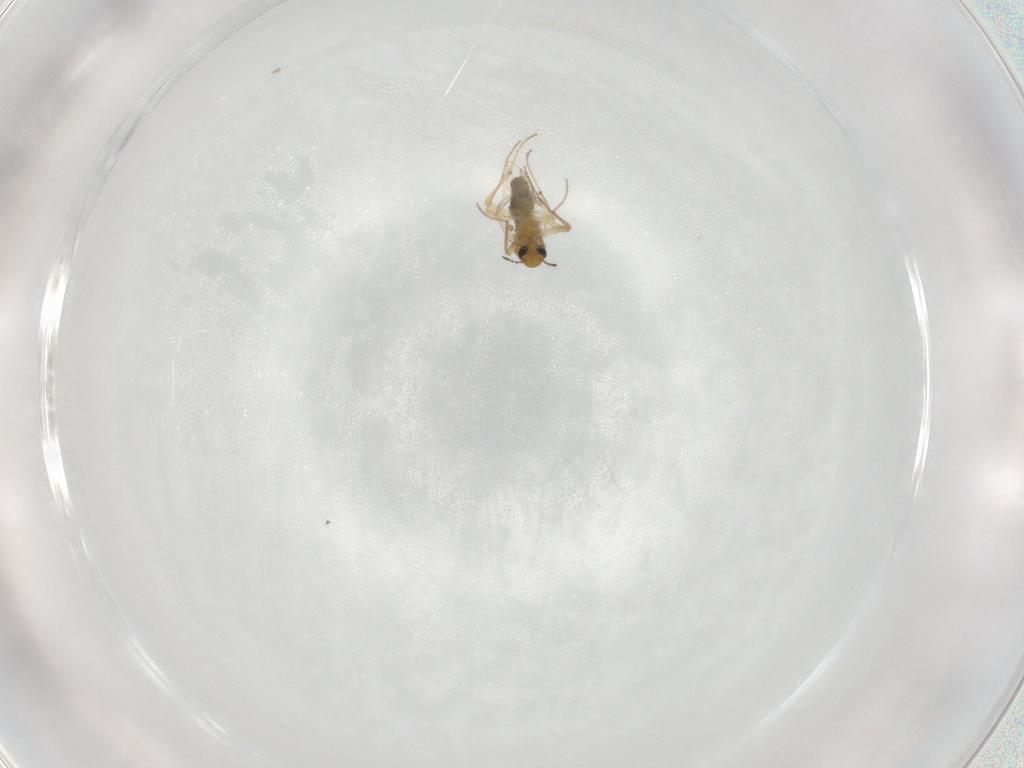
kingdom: Animalia
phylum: Arthropoda
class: Insecta
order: Diptera
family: Chironomidae
